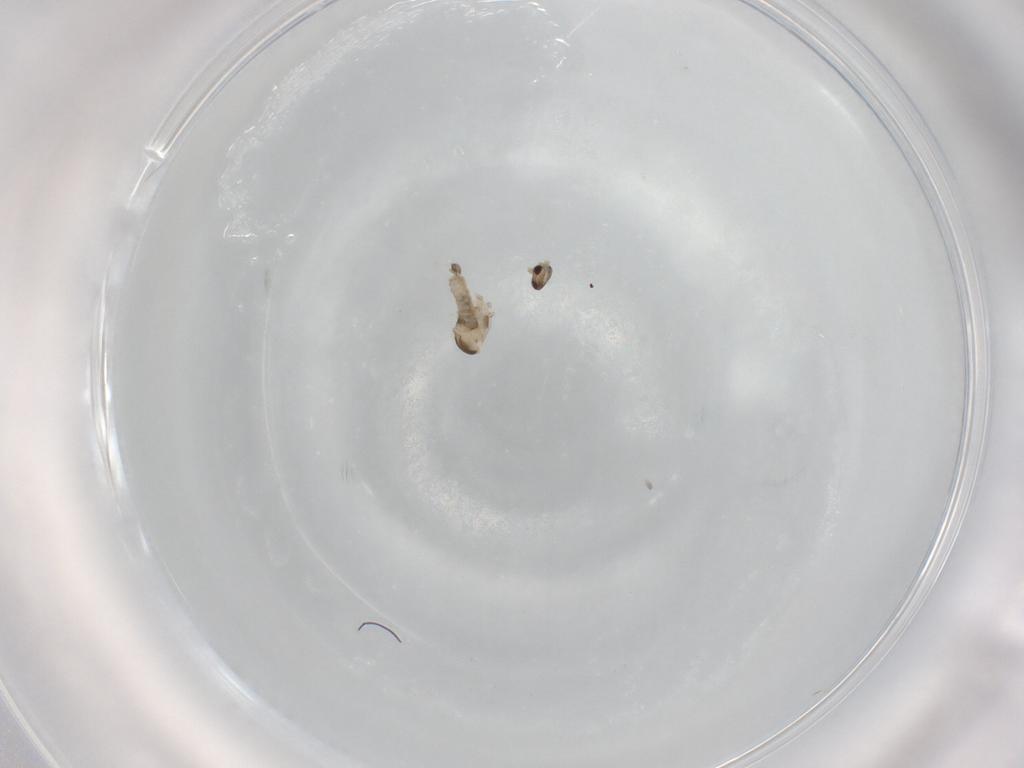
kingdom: Animalia
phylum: Arthropoda
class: Insecta
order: Diptera
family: Cecidomyiidae
